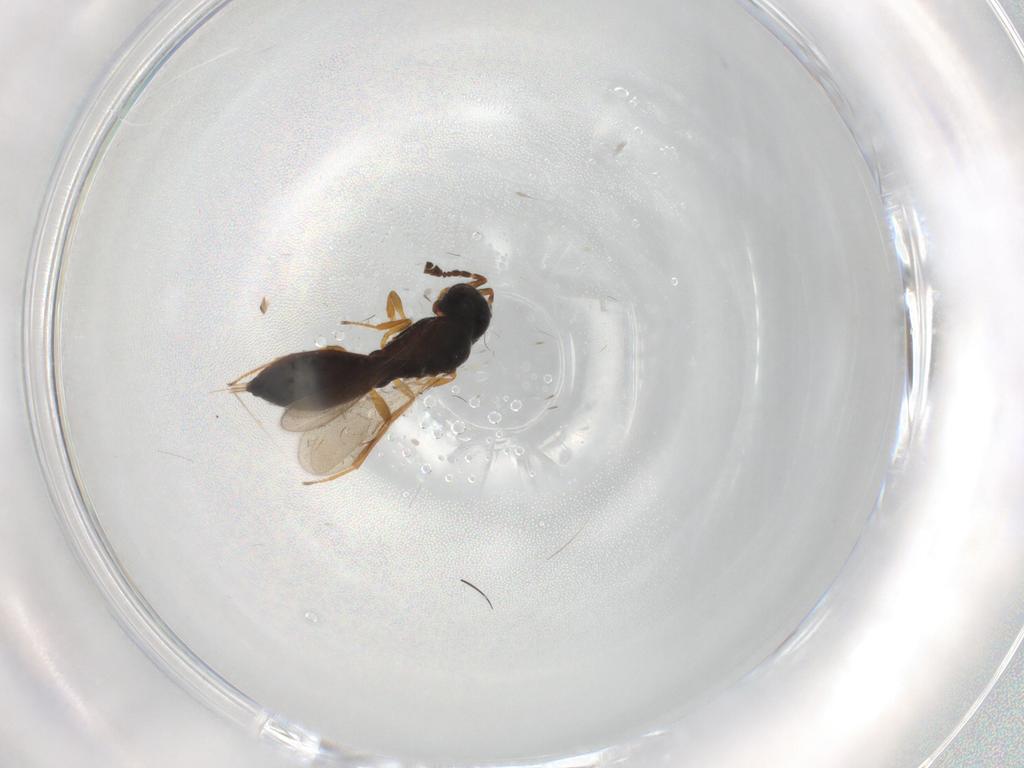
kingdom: Animalia
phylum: Arthropoda
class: Insecta
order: Hymenoptera
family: Scelionidae
